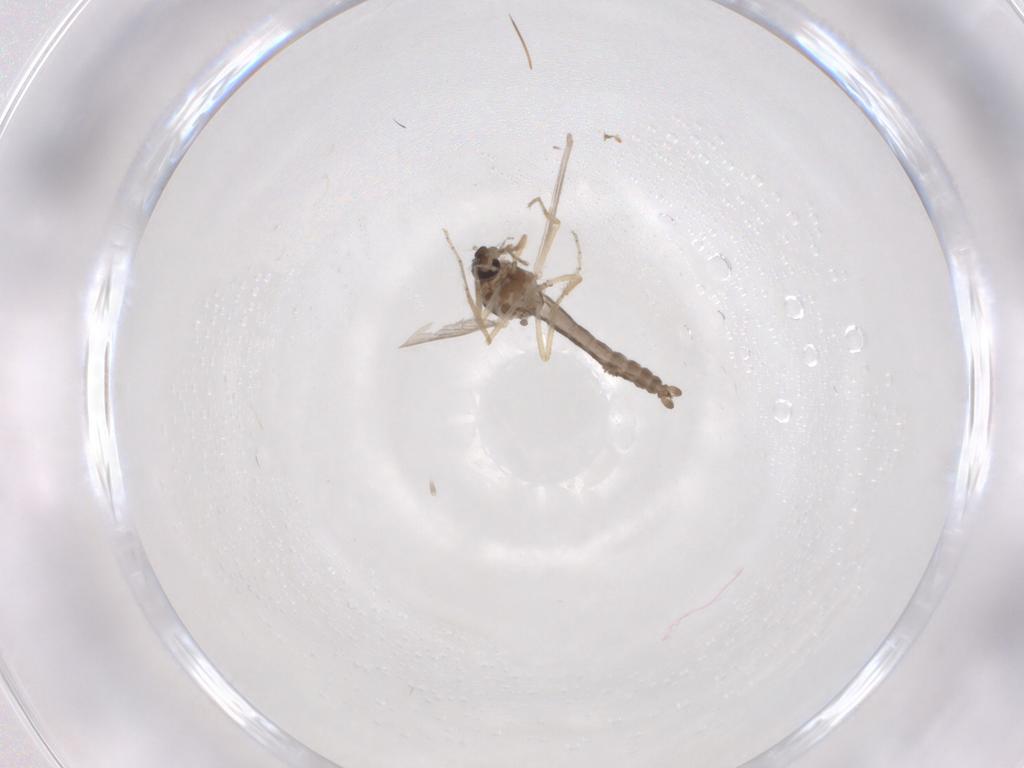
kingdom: Animalia
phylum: Arthropoda
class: Insecta
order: Diptera
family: Ceratopogonidae
